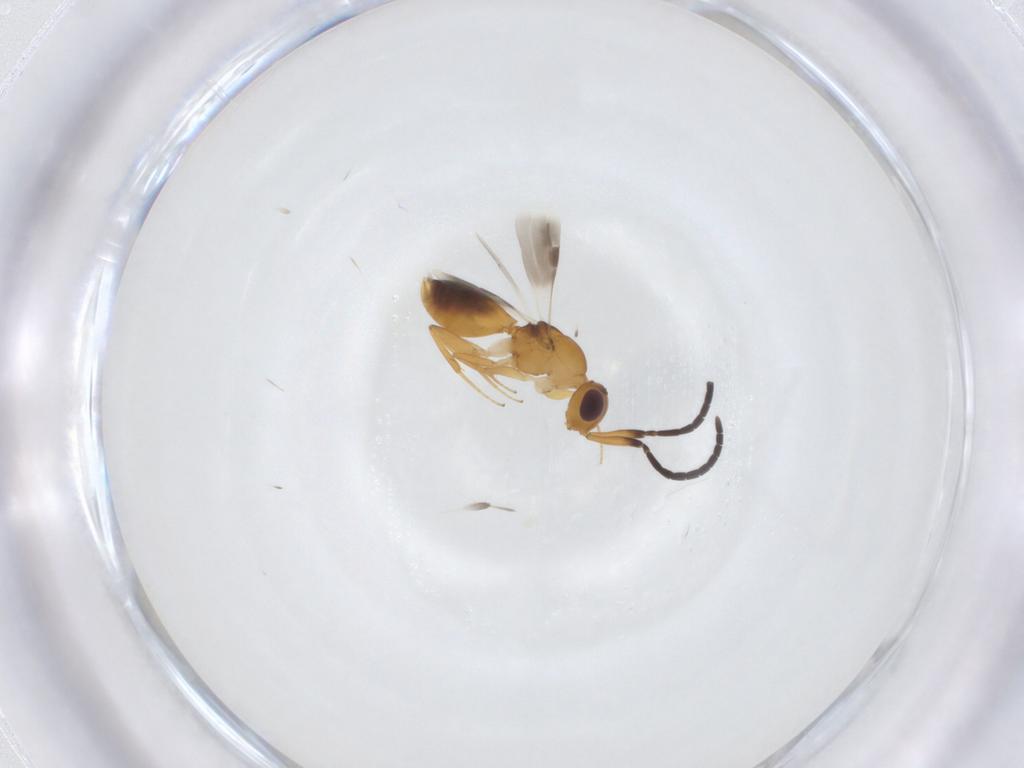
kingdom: Animalia
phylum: Arthropoda
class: Insecta
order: Hymenoptera
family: Megaspilidae
